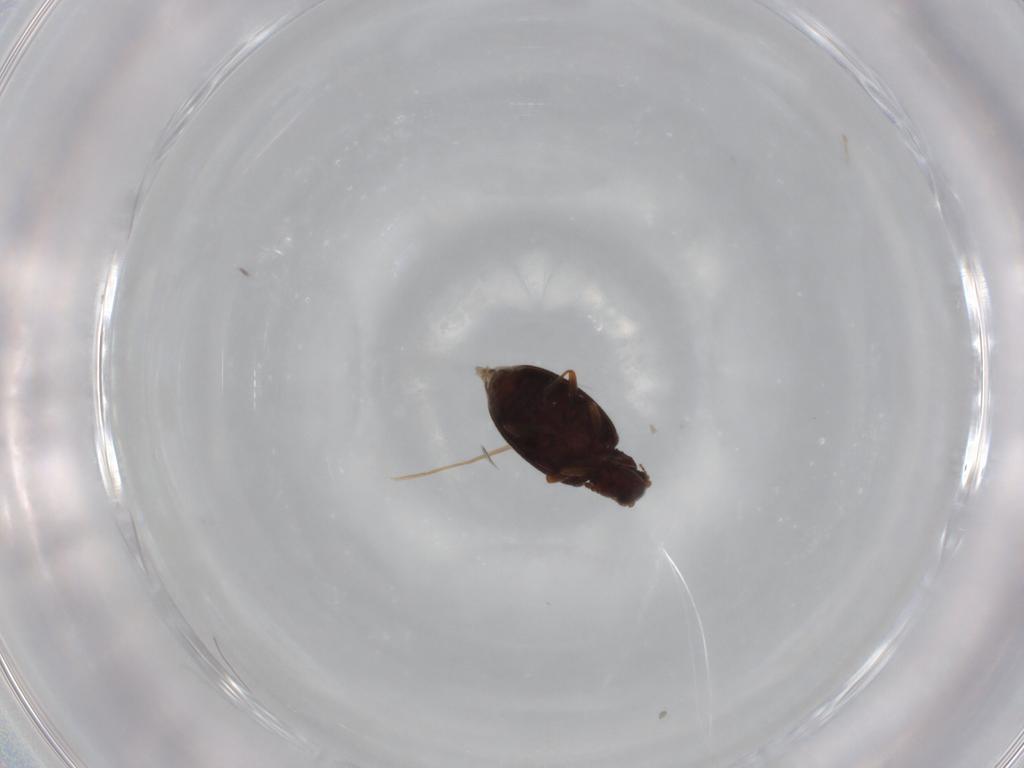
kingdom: Animalia
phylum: Arthropoda
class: Insecta
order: Coleoptera
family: Latridiidae
